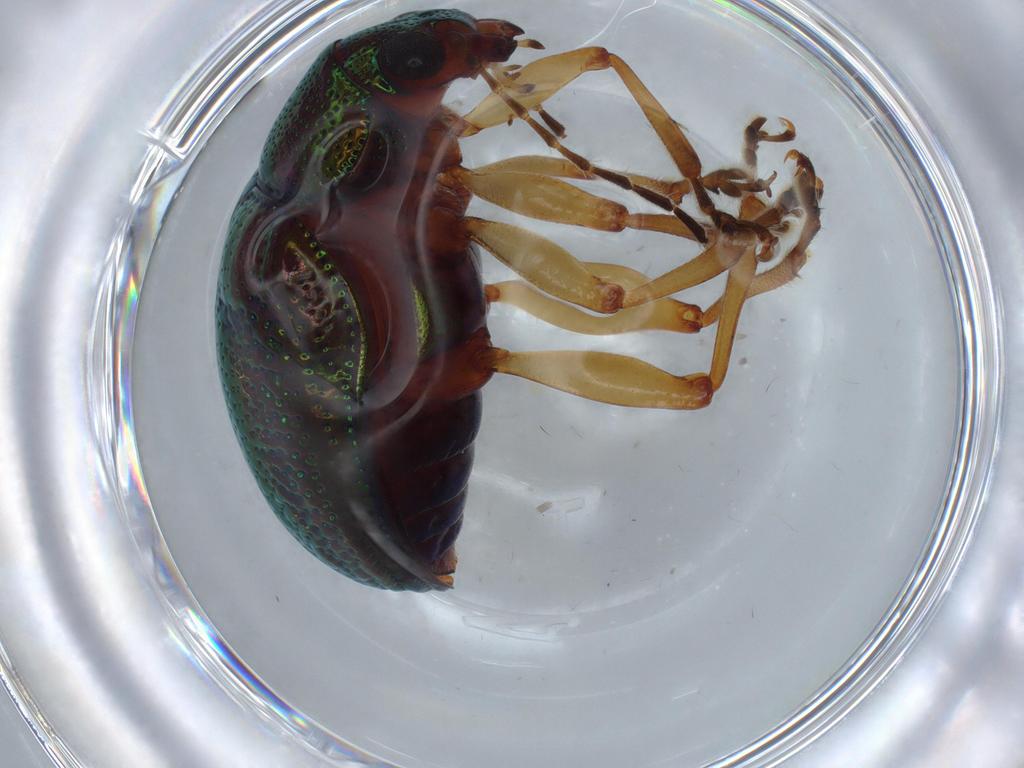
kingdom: Animalia
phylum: Arthropoda
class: Insecta
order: Coleoptera
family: Chrysomelidae
